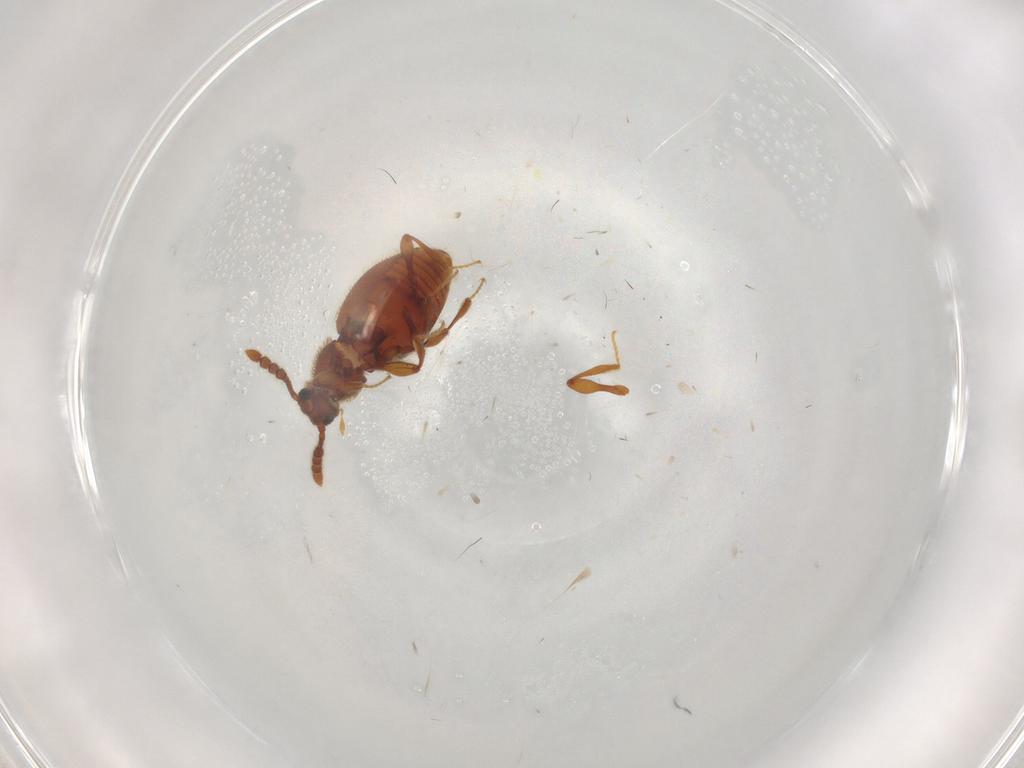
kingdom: Animalia
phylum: Arthropoda
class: Insecta
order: Coleoptera
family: Staphylinidae
